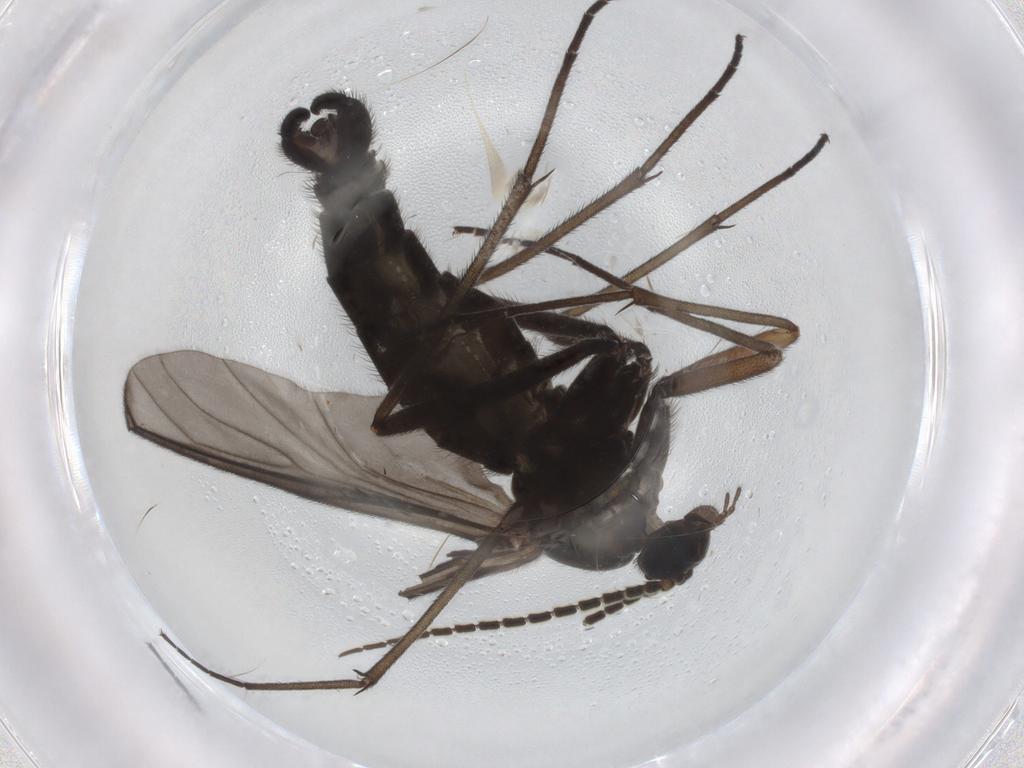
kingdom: Animalia
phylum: Arthropoda
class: Insecta
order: Diptera
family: Sciaridae
